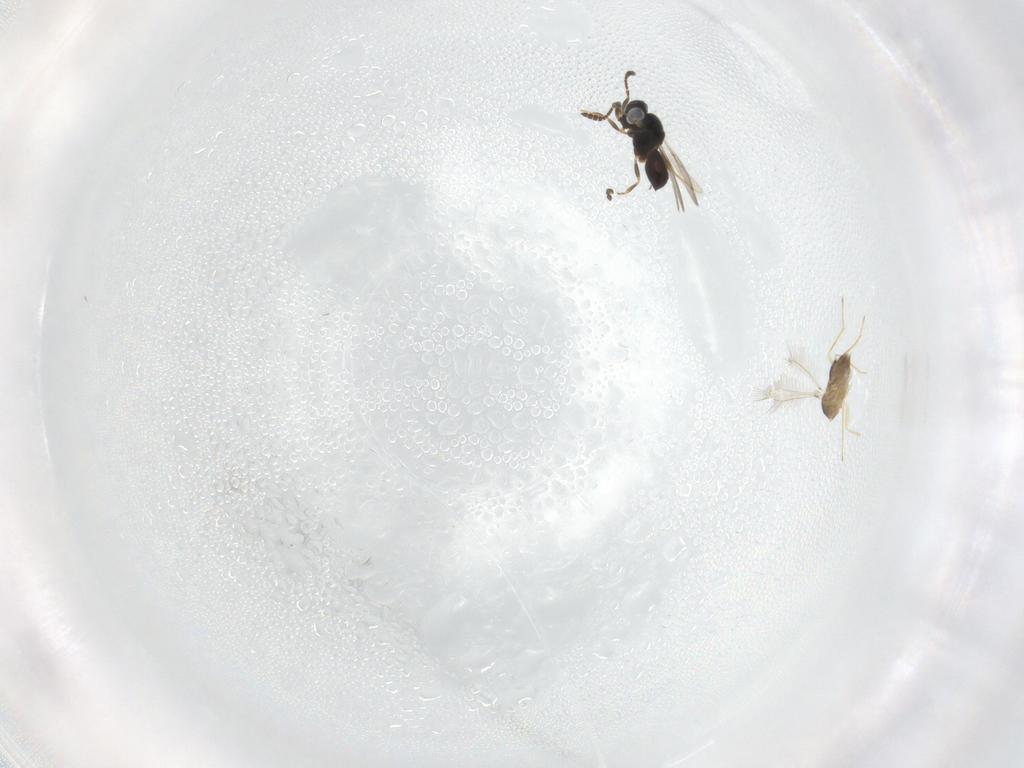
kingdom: Animalia
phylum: Arthropoda
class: Insecta
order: Hymenoptera
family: Scelionidae
